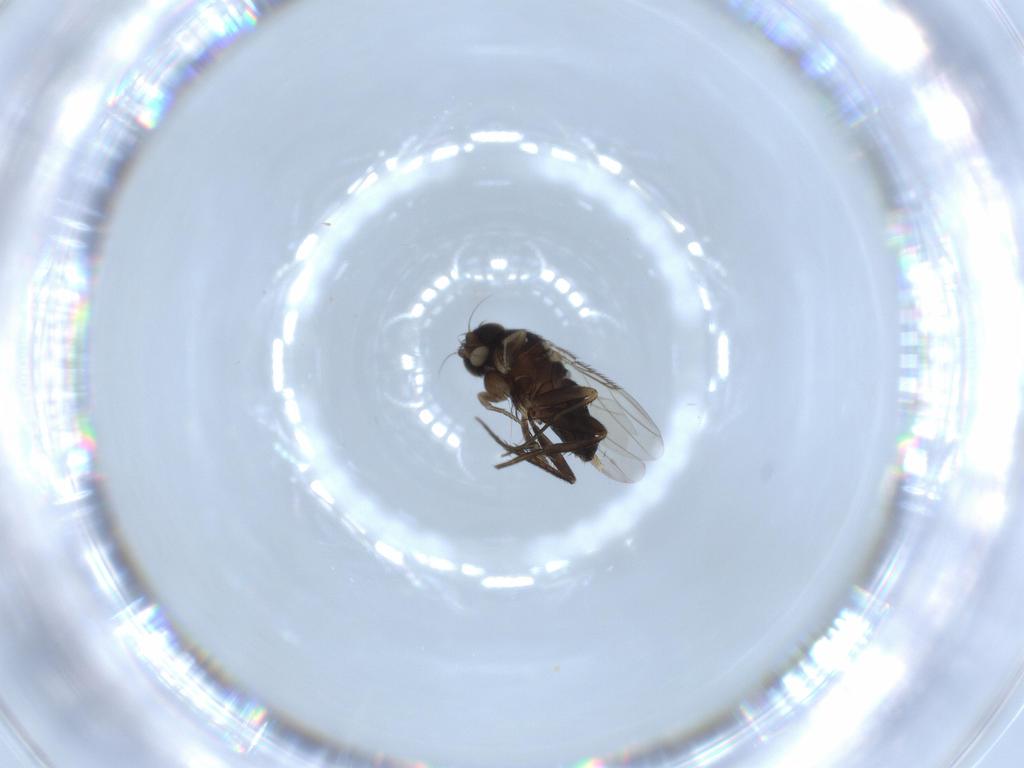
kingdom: Animalia
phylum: Arthropoda
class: Insecta
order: Diptera
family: Phoridae
